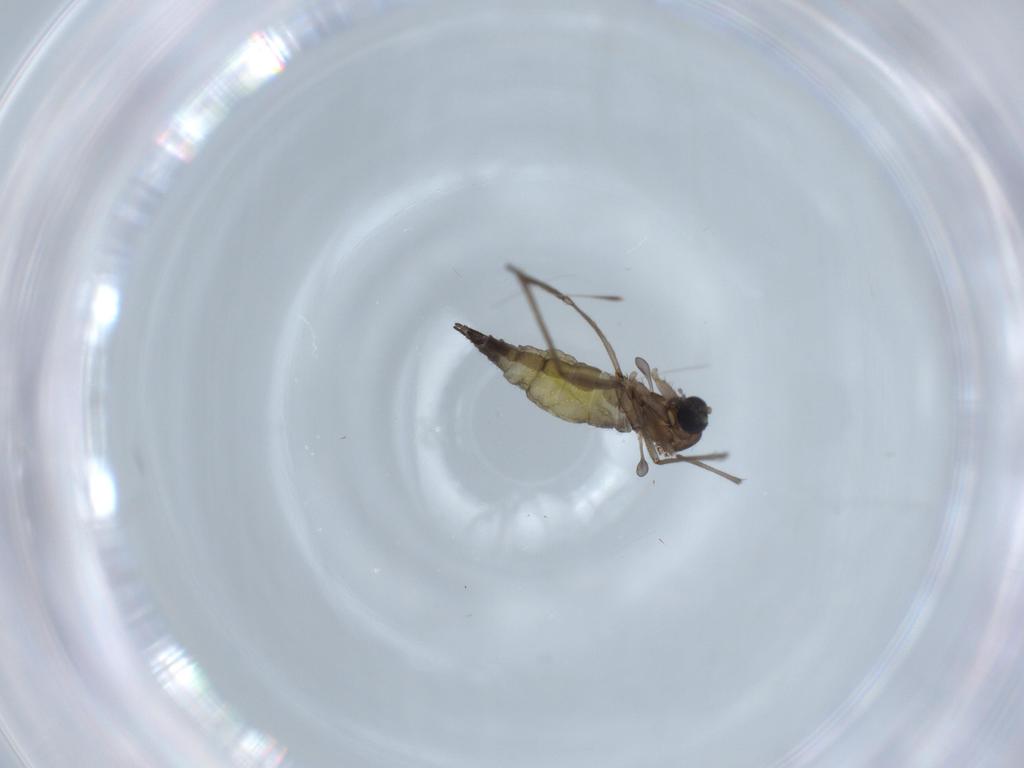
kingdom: Animalia
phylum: Arthropoda
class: Insecta
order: Diptera
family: Sciaridae
